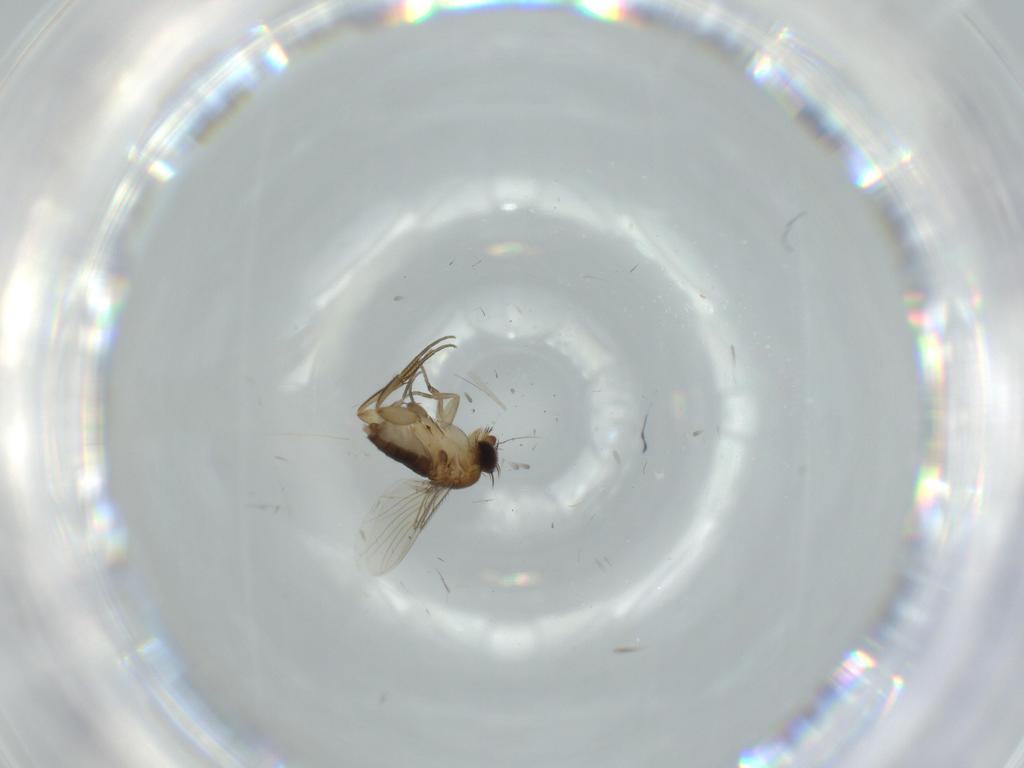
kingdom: Animalia
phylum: Arthropoda
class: Insecta
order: Diptera
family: Phoridae
